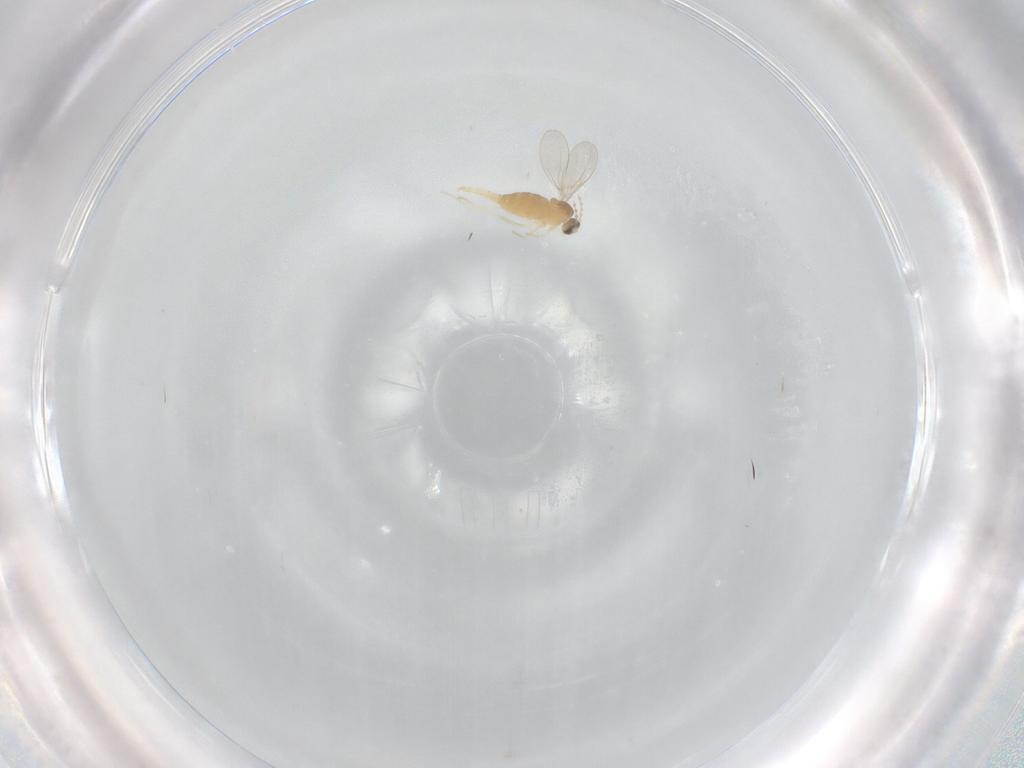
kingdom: Animalia
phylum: Arthropoda
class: Insecta
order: Diptera
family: Cecidomyiidae
